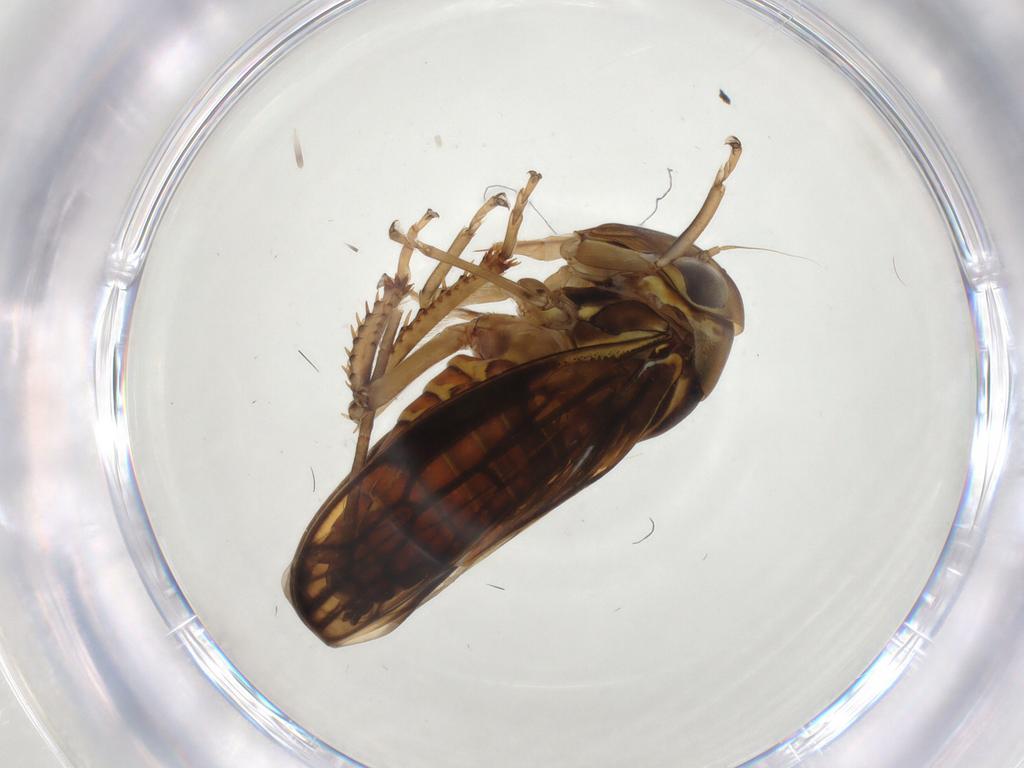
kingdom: Animalia
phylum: Arthropoda
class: Insecta
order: Hemiptera
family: Cicadellidae
